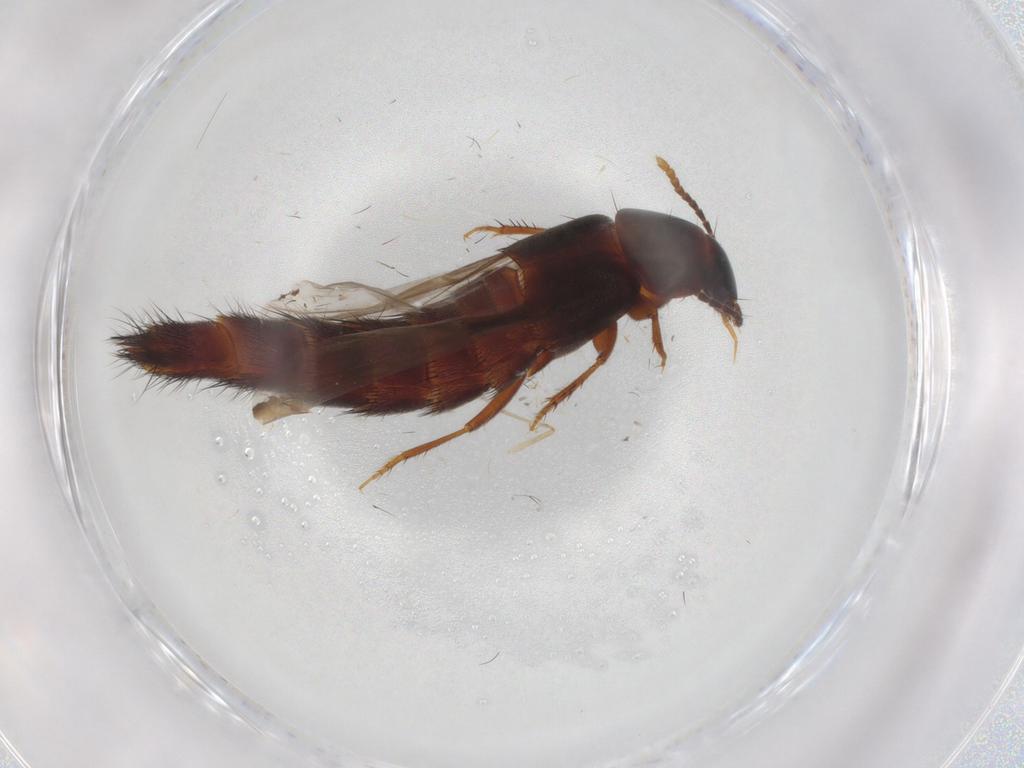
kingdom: Animalia
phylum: Arthropoda
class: Insecta
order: Coleoptera
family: Staphylinidae
